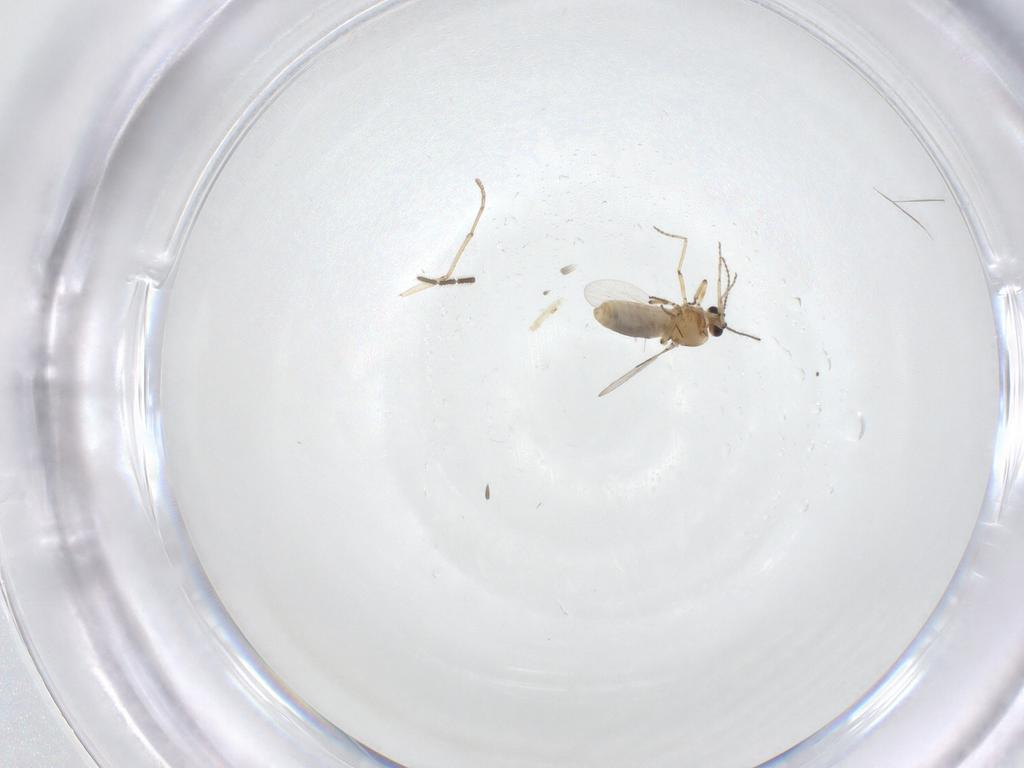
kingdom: Animalia
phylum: Arthropoda
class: Insecta
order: Diptera
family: Ceratopogonidae
